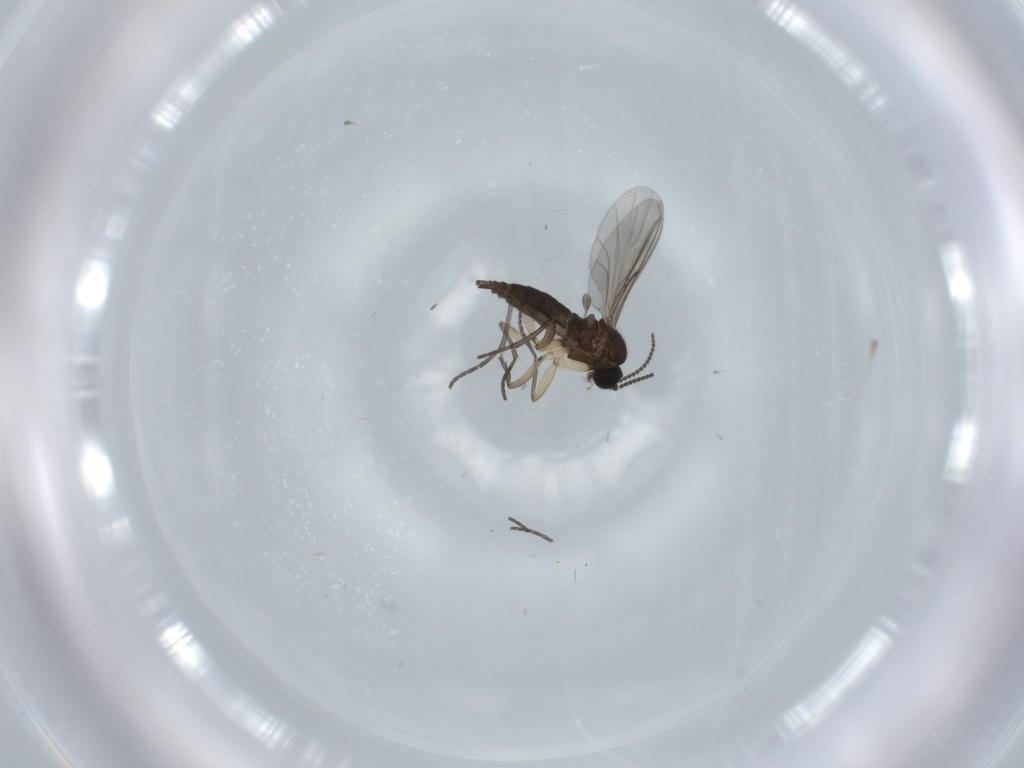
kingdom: Animalia
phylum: Arthropoda
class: Insecta
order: Diptera
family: Sciaridae
